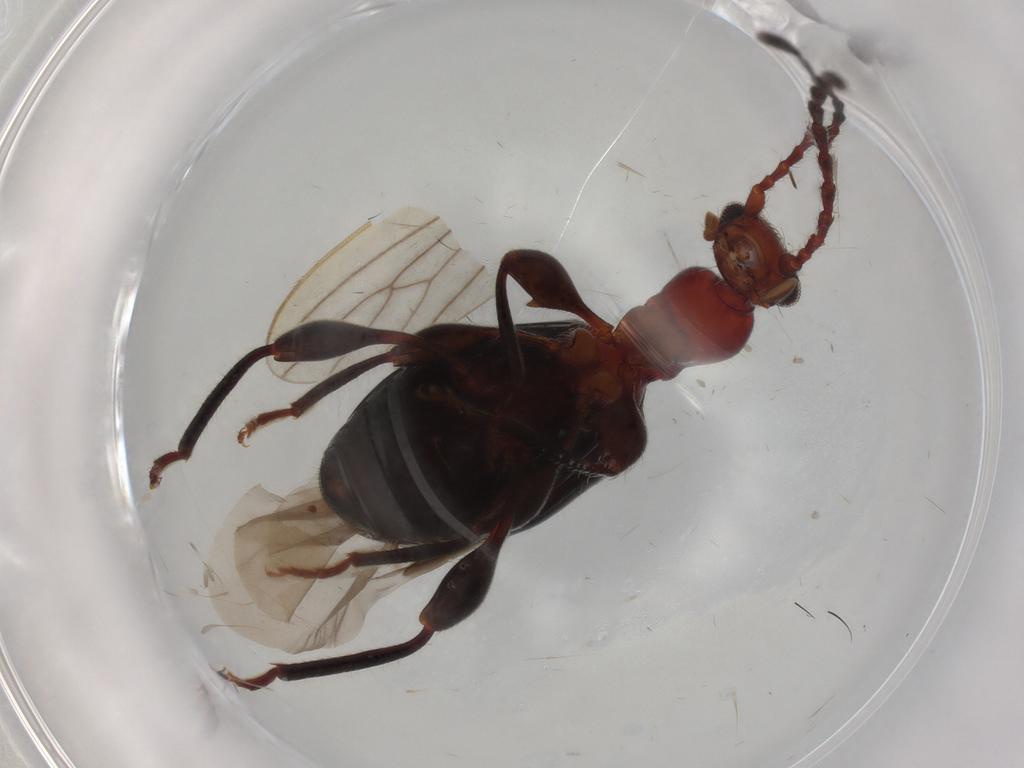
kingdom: Animalia
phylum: Arthropoda
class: Insecta
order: Coleoptera
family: Anthicidae
